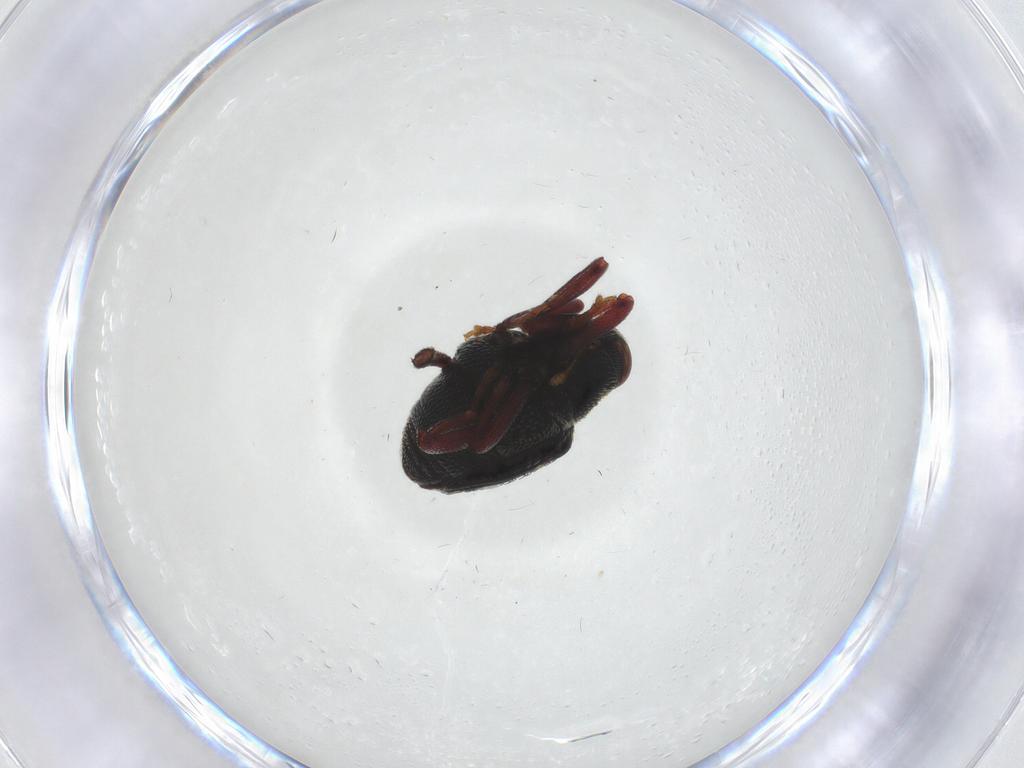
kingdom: Animalia
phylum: Arthropoda
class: Insecta
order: Coleoptera
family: Curculionidae
